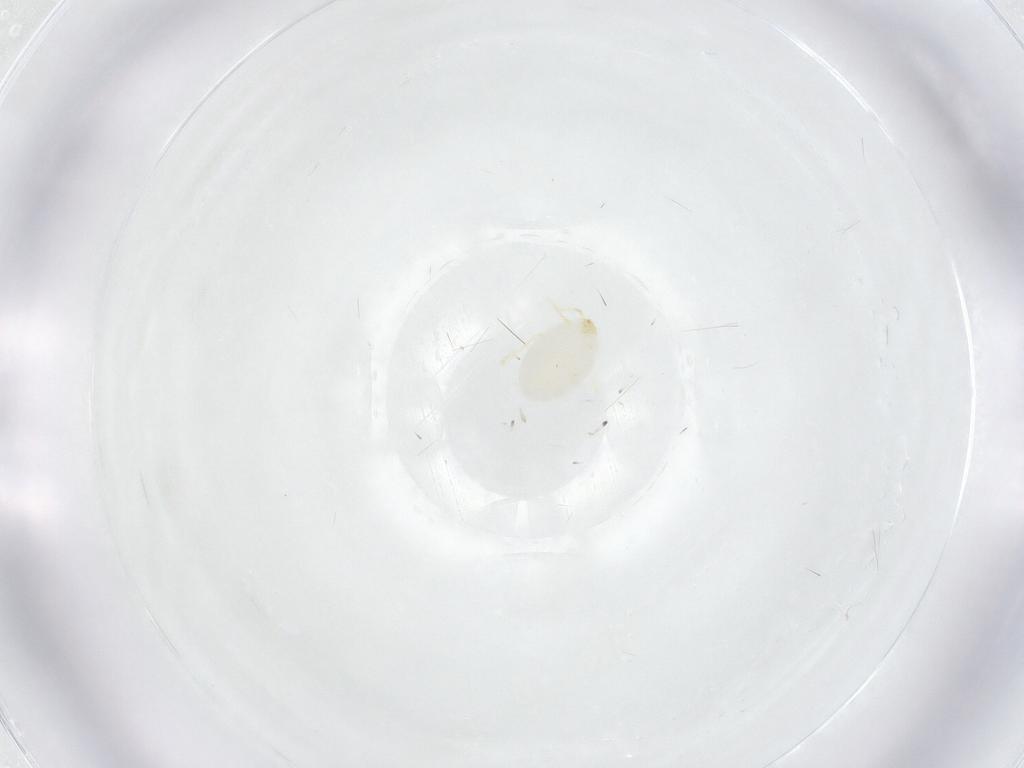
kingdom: Animalia
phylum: Arthropoda
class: Arachnida
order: Trombidiformes
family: Erythraeidae
